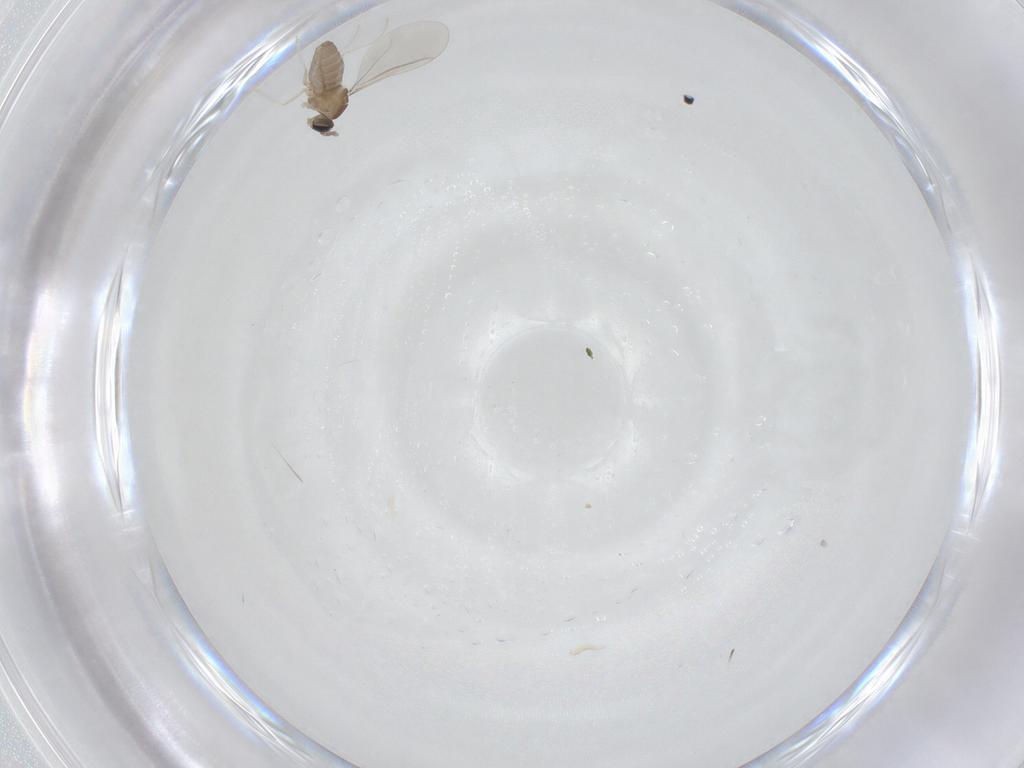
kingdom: Animalia
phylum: Arthropoda
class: Insecta
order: Diptera
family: Cecidomyiidae
